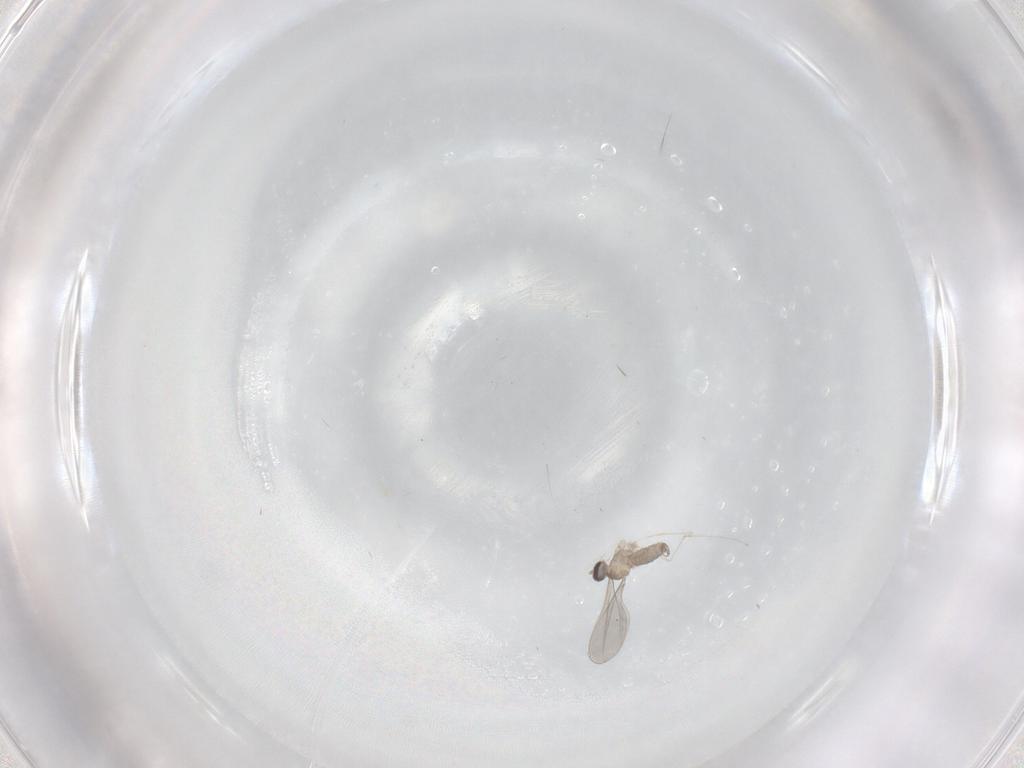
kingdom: Animalia
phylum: Arthropoda
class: Insecta
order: Diptera
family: Cecidomyiidae
